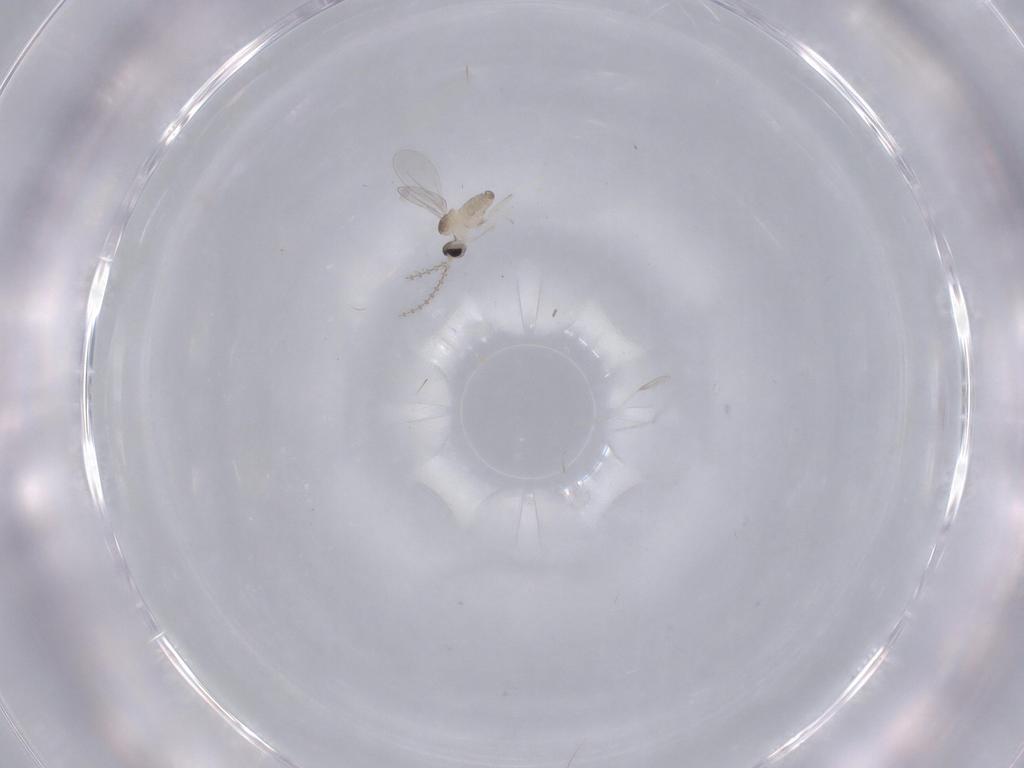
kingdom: Animalia
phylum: Arthropoda
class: Insecta
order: Diptera
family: Cecidomyiidae
